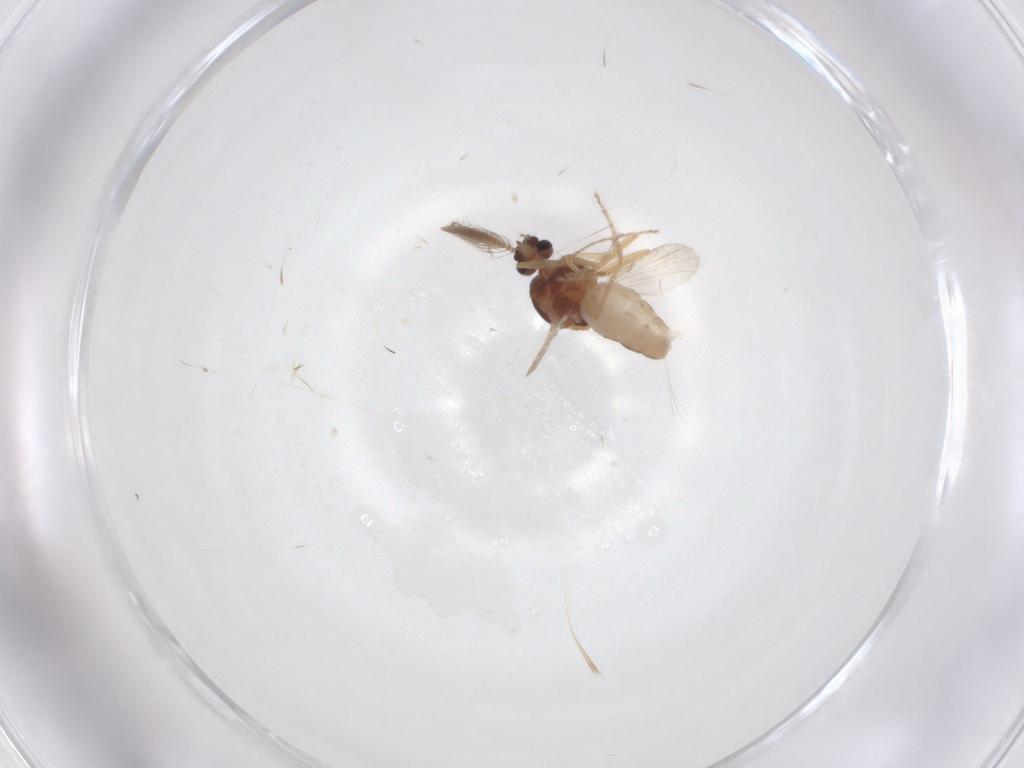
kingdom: Animalia
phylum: Arthropoda
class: Insecta
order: Diptera
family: Ceratopogonidae
